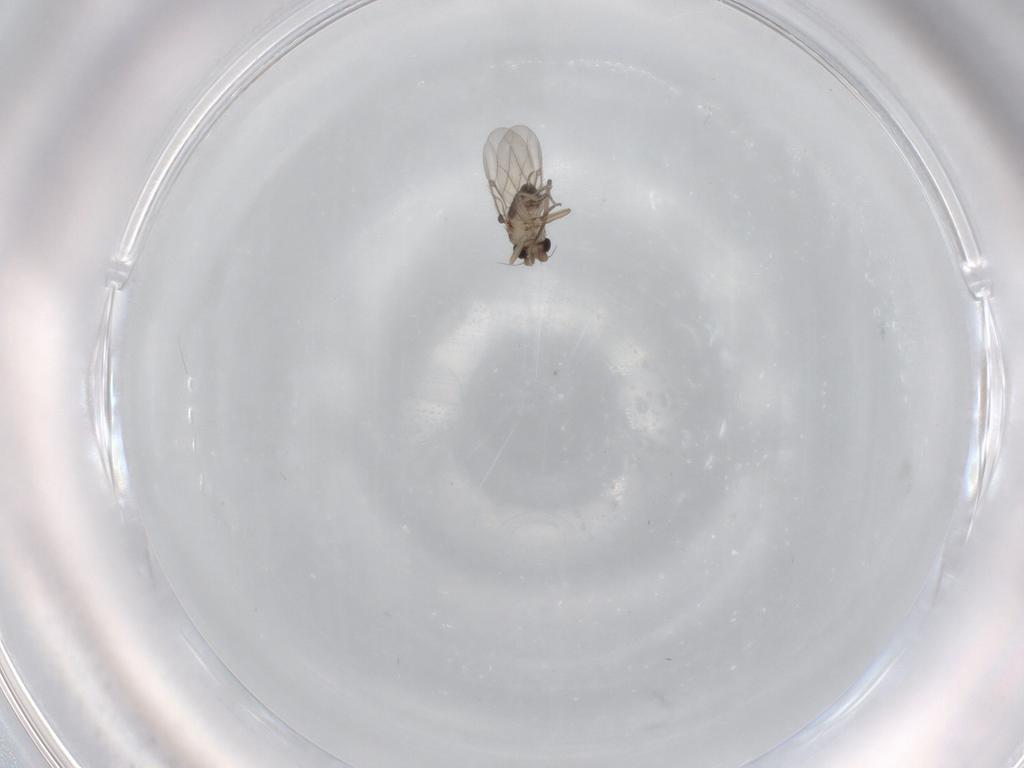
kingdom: Animalia
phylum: Arthropoda
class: Insecta
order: Diptera
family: Phoridae
